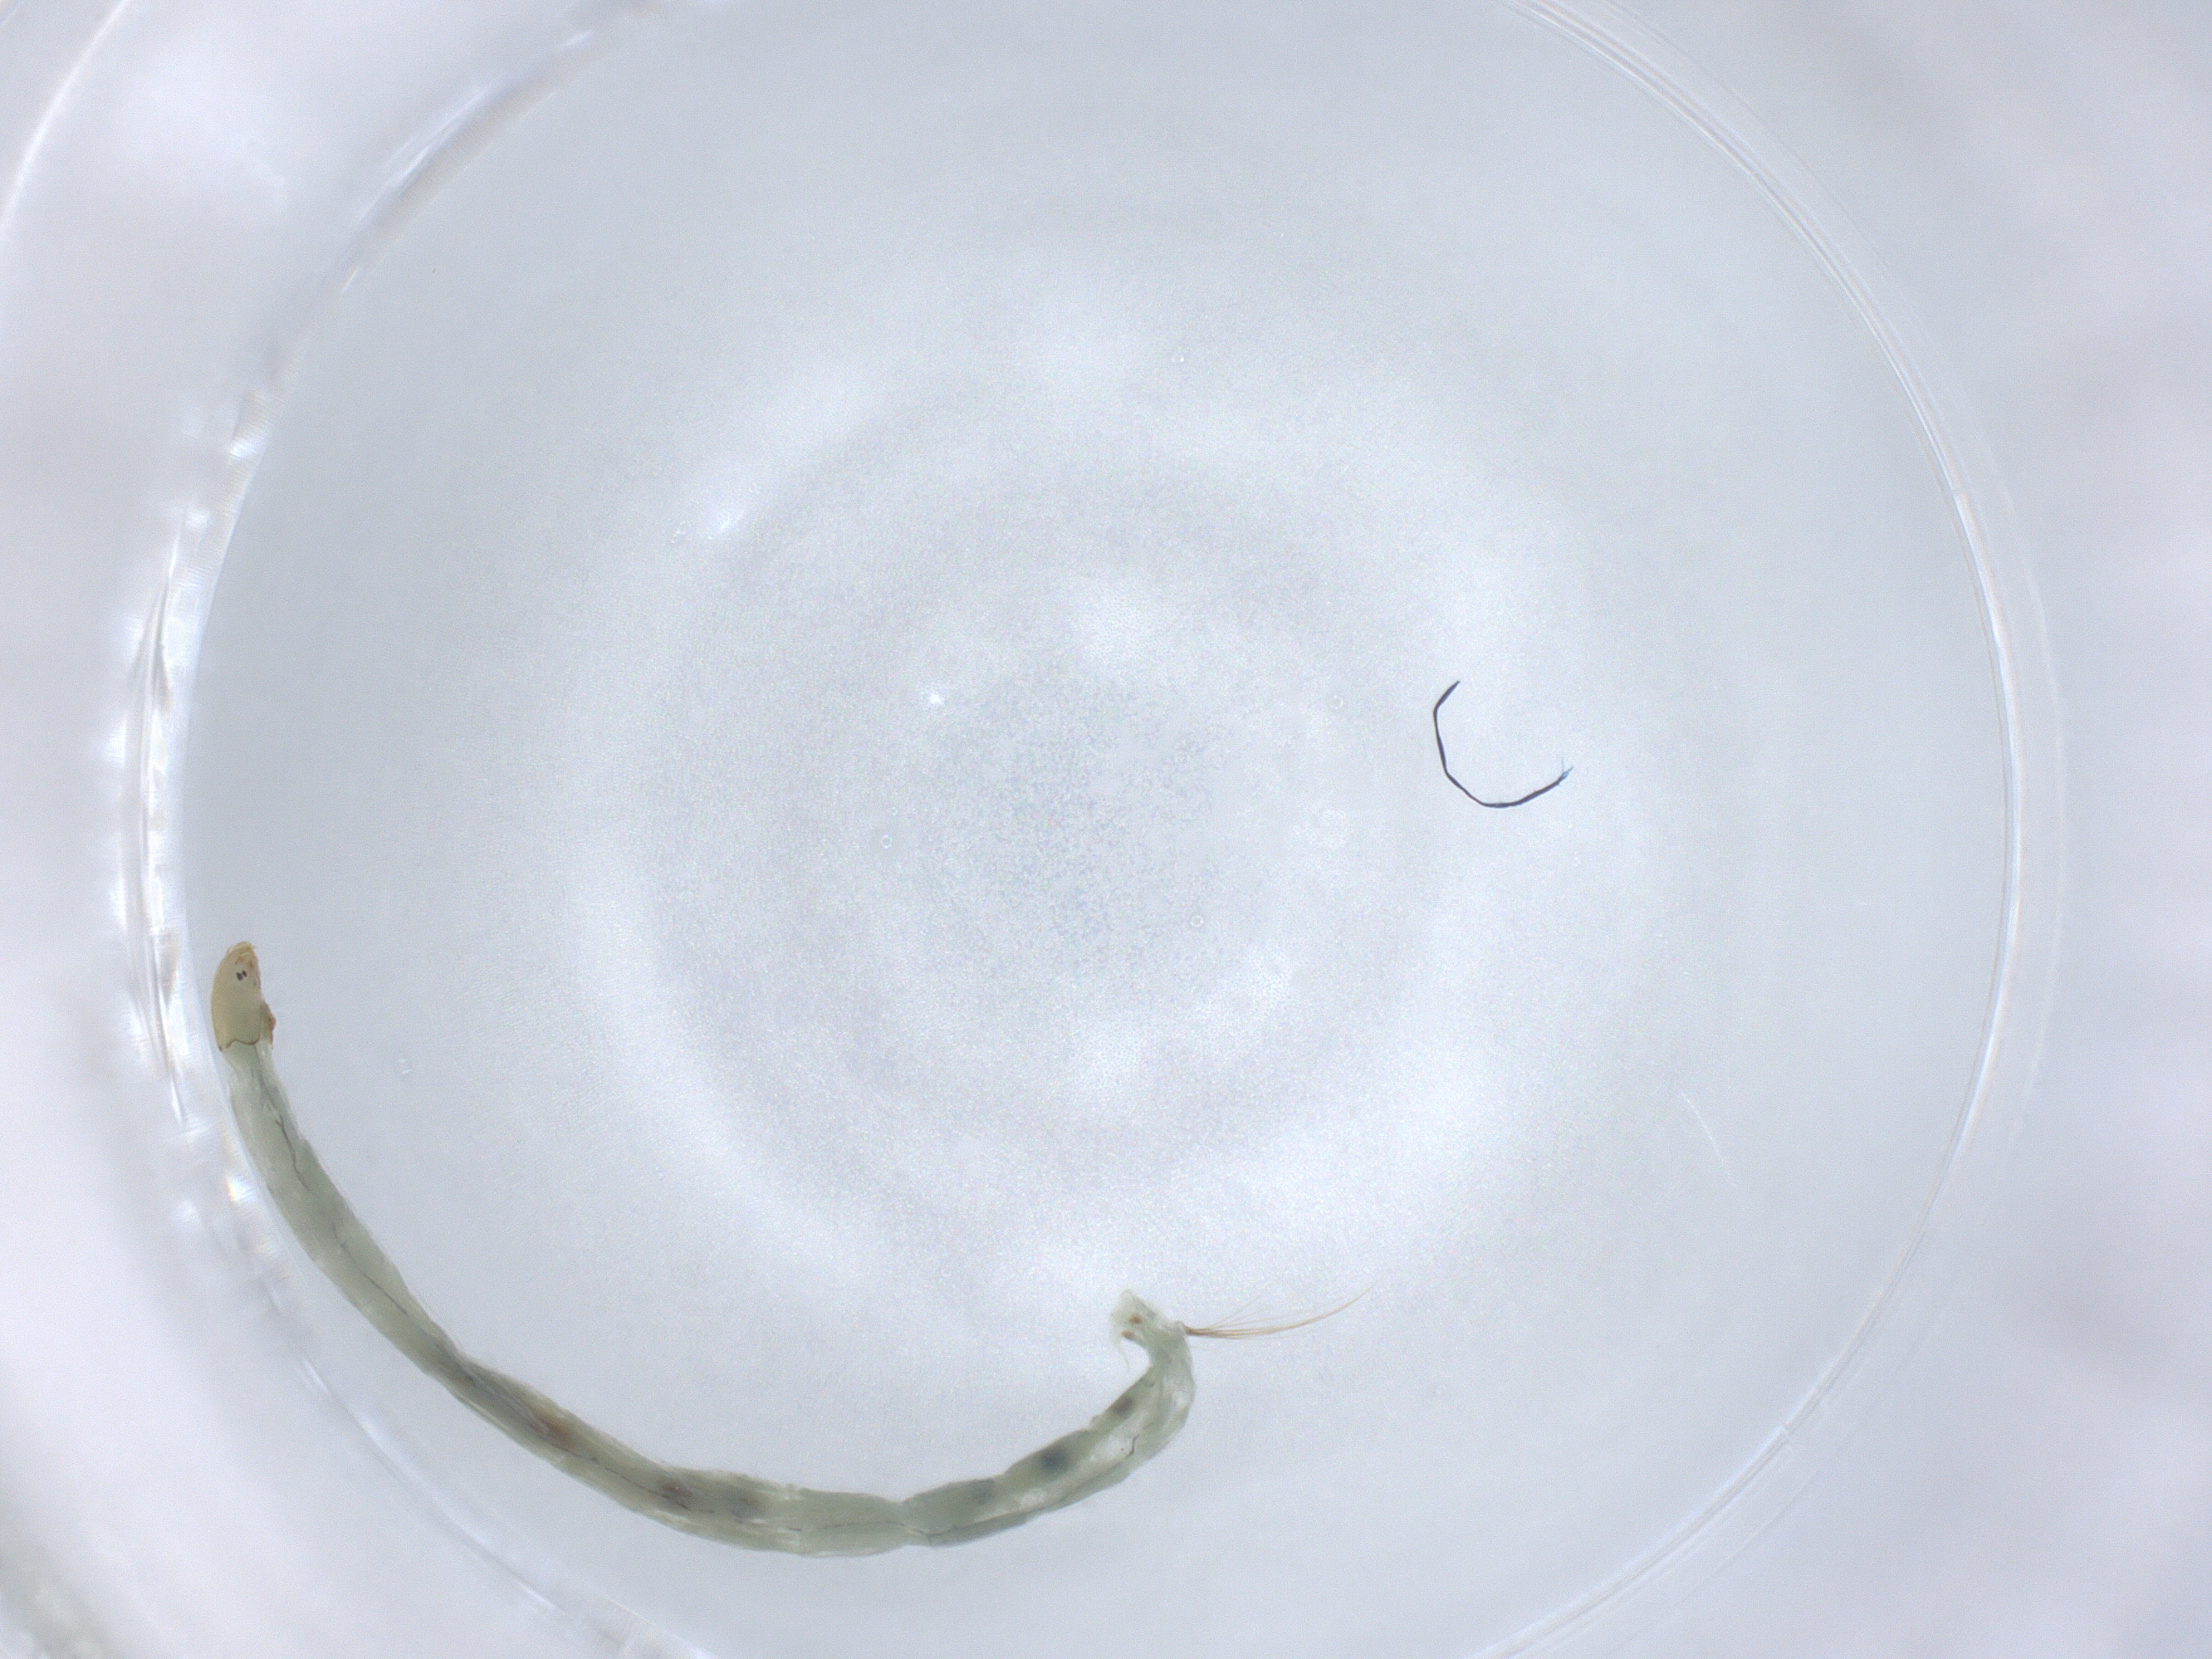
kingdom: Animalia
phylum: Arthropoda
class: Insecta
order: Diptera
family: Chironomidae
